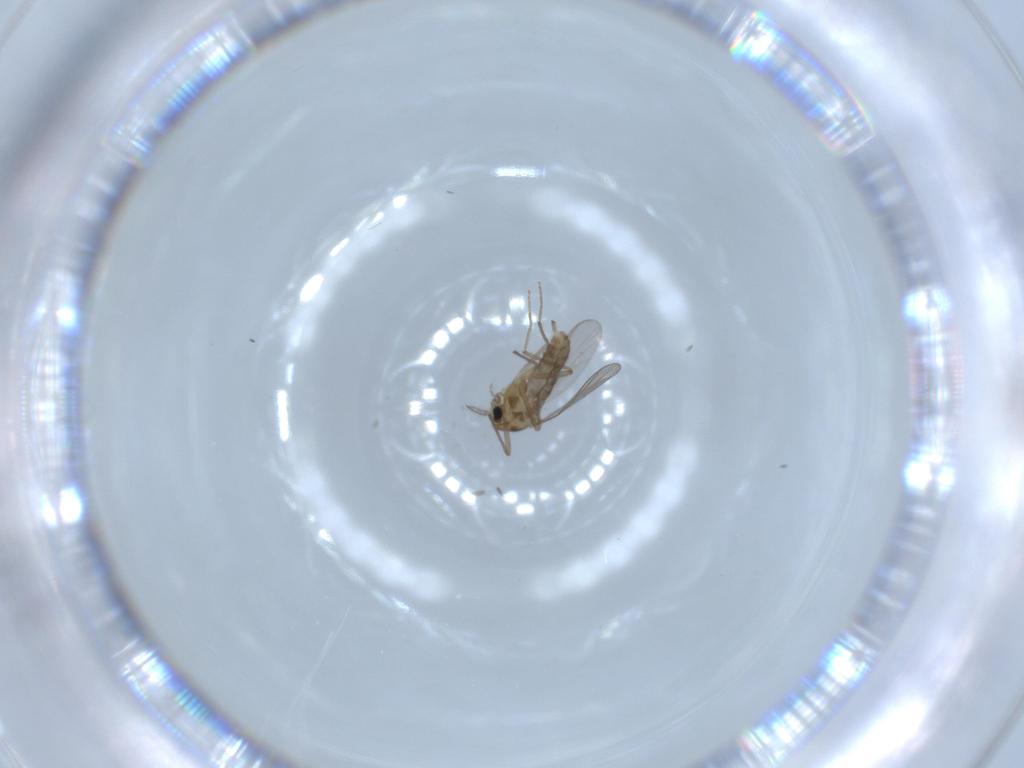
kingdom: Animalia
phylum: Arthropoda
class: Insecta
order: Diptera
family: Chironomidae
